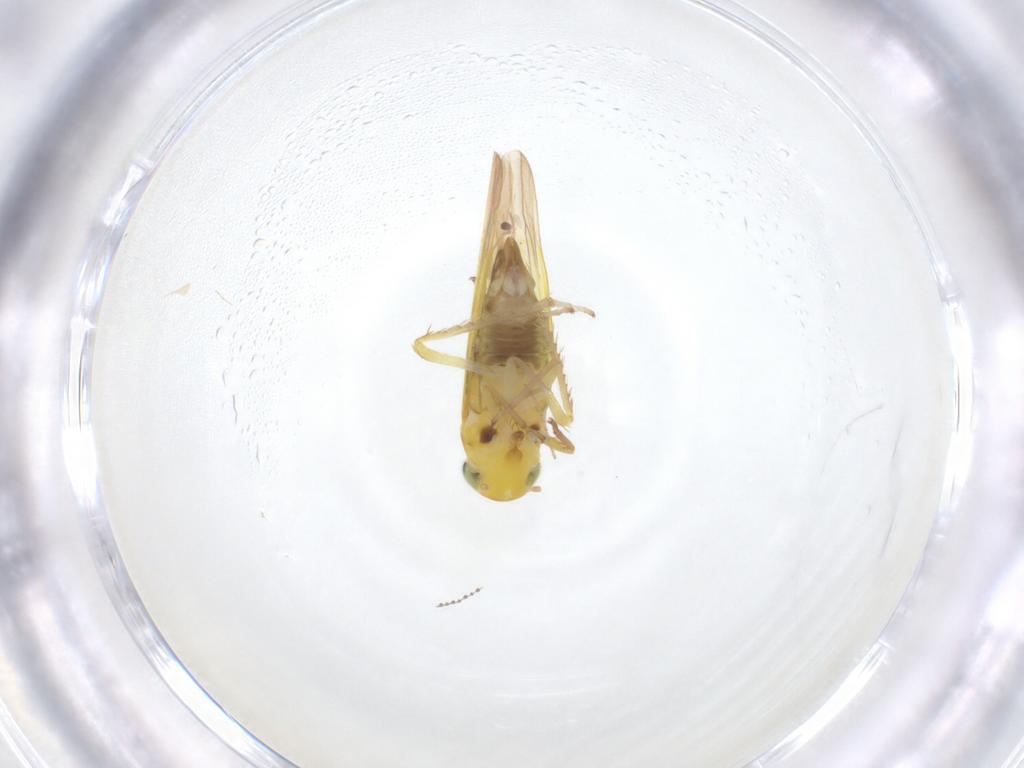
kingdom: Animalia
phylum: Arthropoda
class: Insecta
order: Hemiptera
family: Cicadellidae
